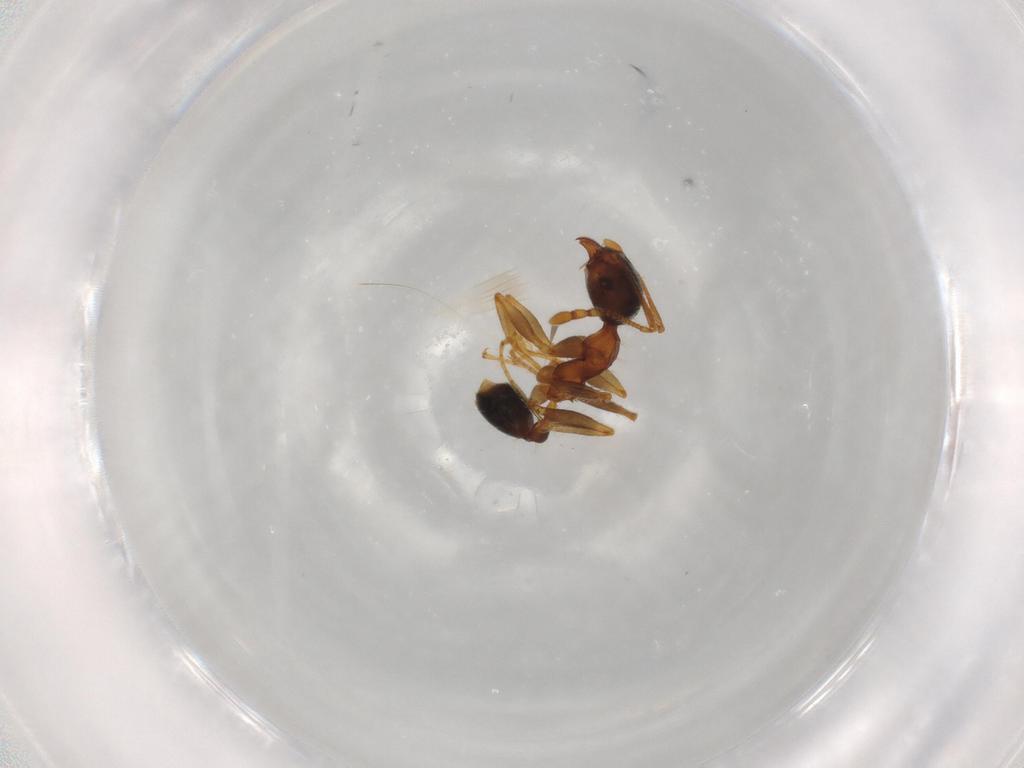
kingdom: Animalia
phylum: Arthropoda
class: Insecta
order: Hymenoptera
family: Formicidae
